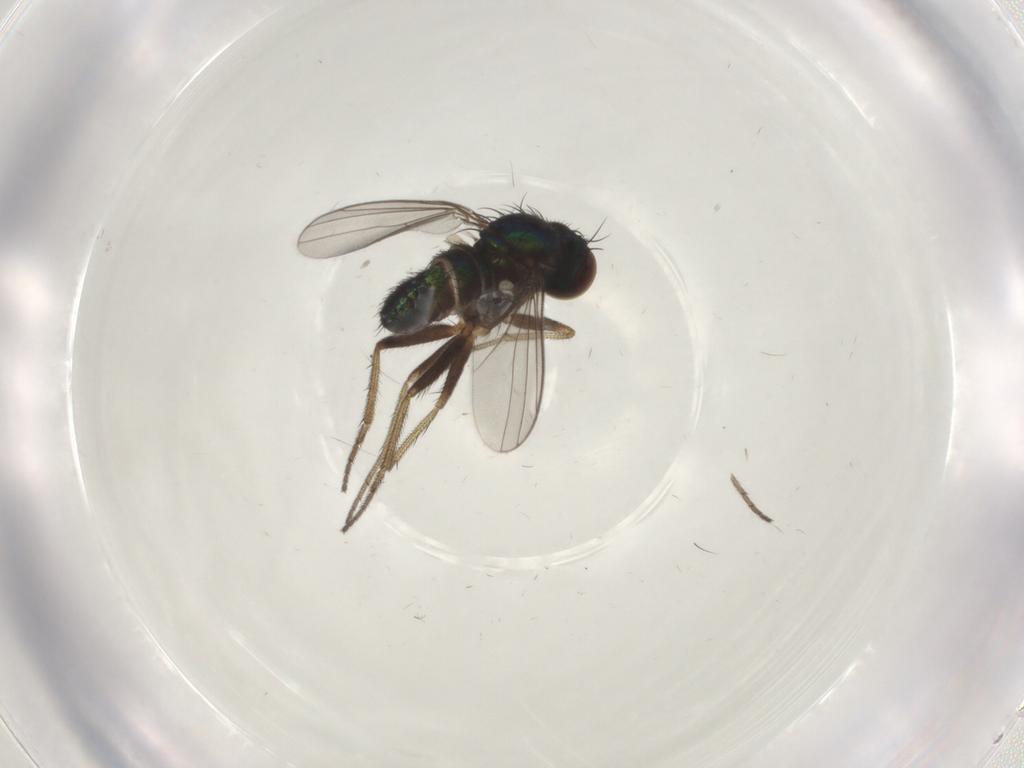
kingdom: Animalia
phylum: Arthropoda
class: Insecta
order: Diptera
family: Dolichopodidae
